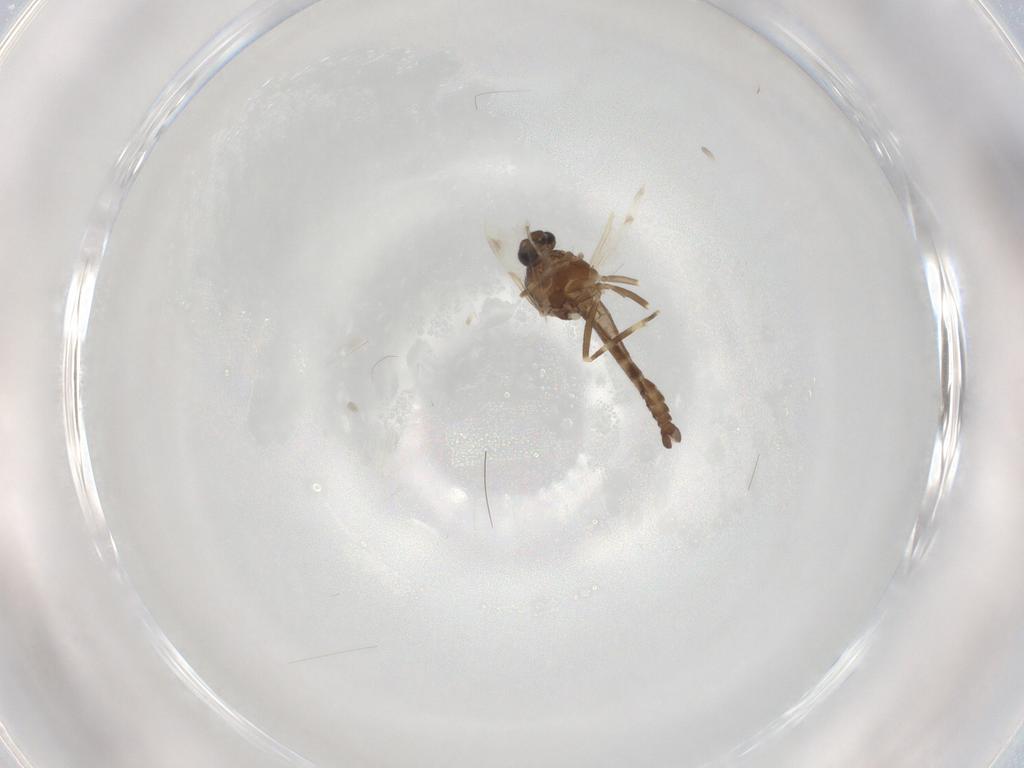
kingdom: Animalia
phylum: Arthropoda
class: Insecta
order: Diptera
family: Ceratopogonidae
